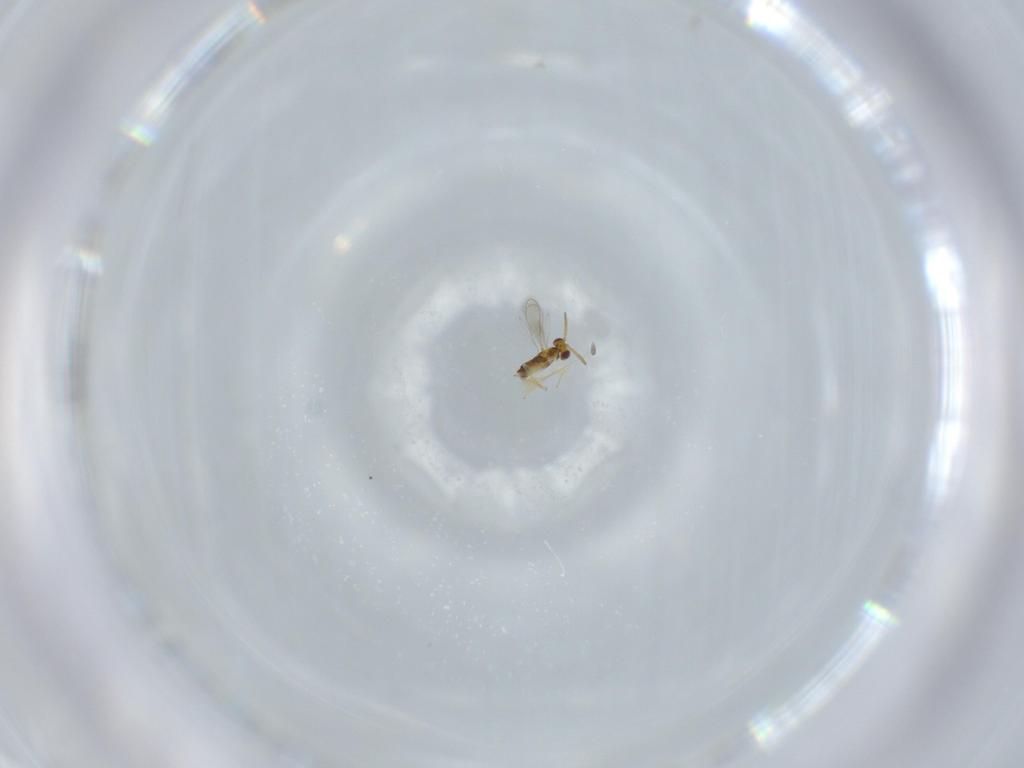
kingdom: Animalia
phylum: Arthropoda
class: Insecta
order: Hymenoptera
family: Aphelinidae
